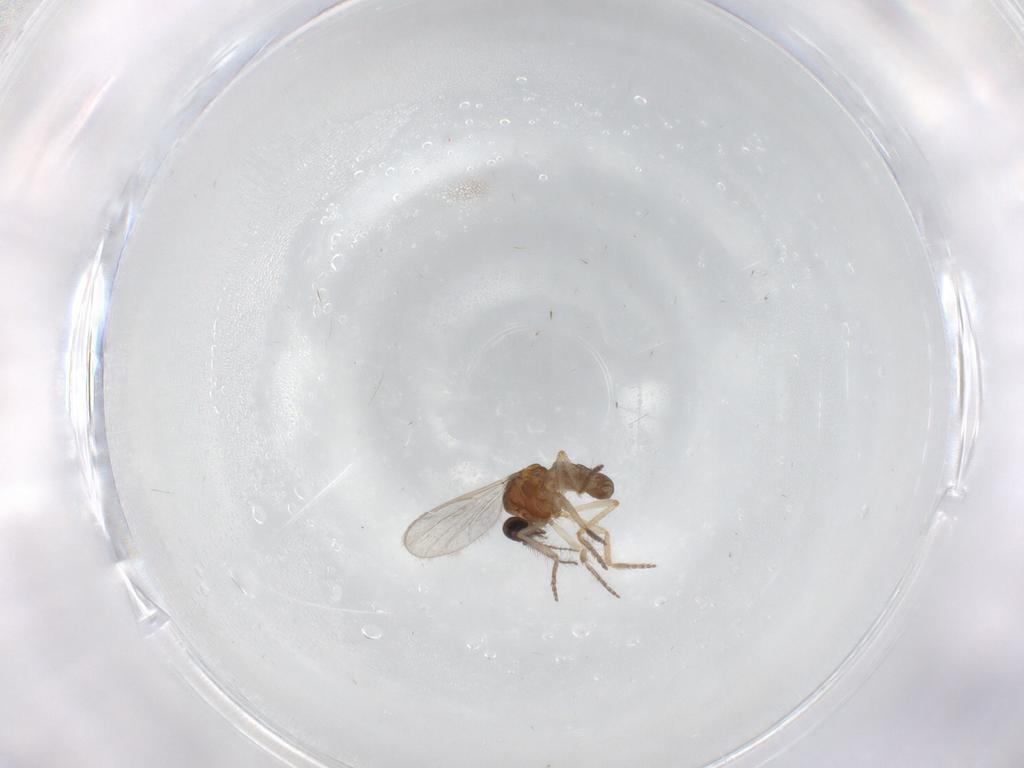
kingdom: Animalia
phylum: Arthropoda
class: Insecta
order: Diptera
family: Ceratopogonidae
